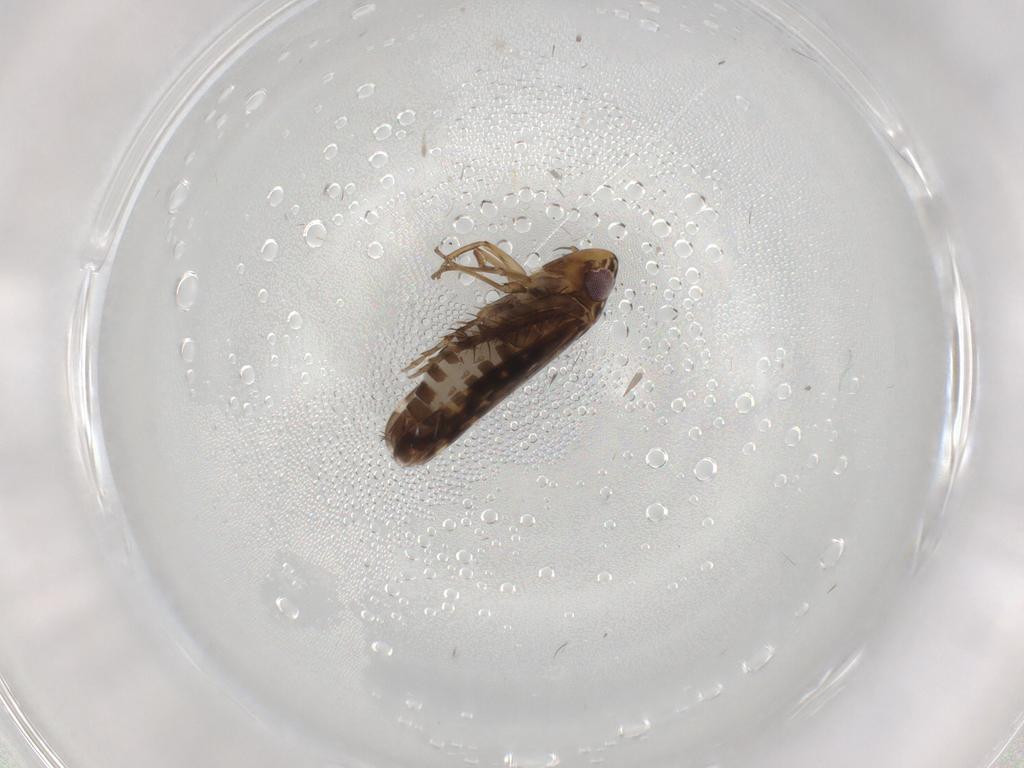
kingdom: Animalia
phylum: Arthropoda
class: Insecta
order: Hemiptera
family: Cicadellidae
